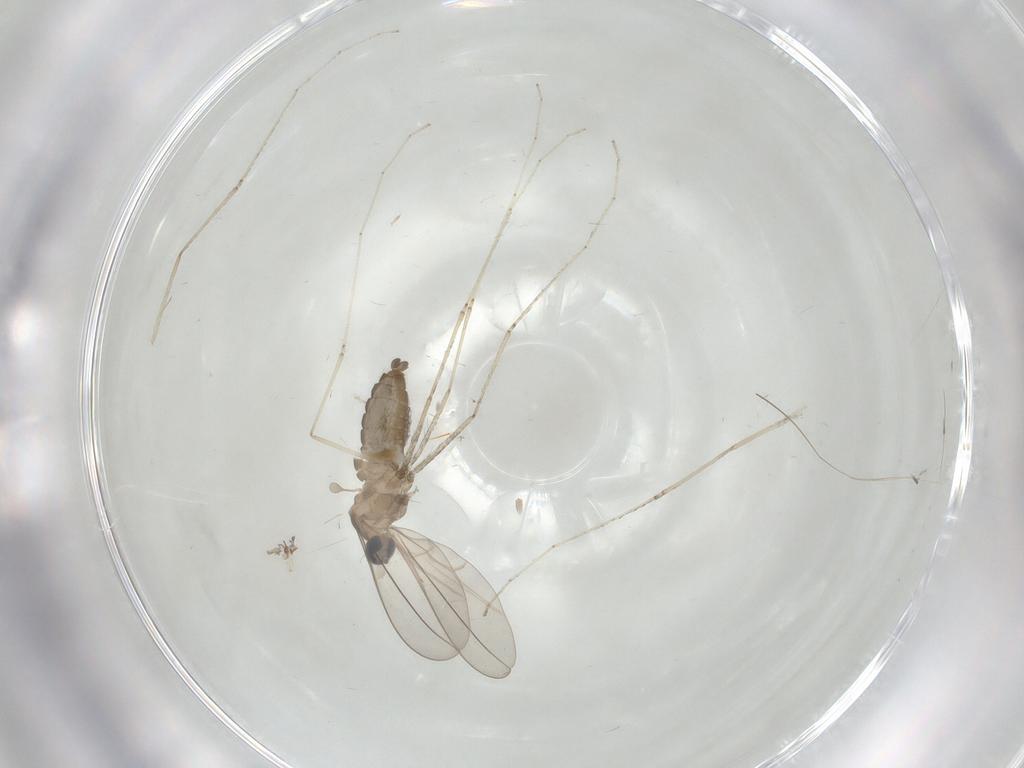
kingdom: Animalia
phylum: Arthropoda
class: Insecta
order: Diptera
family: Cecidomyiidae
